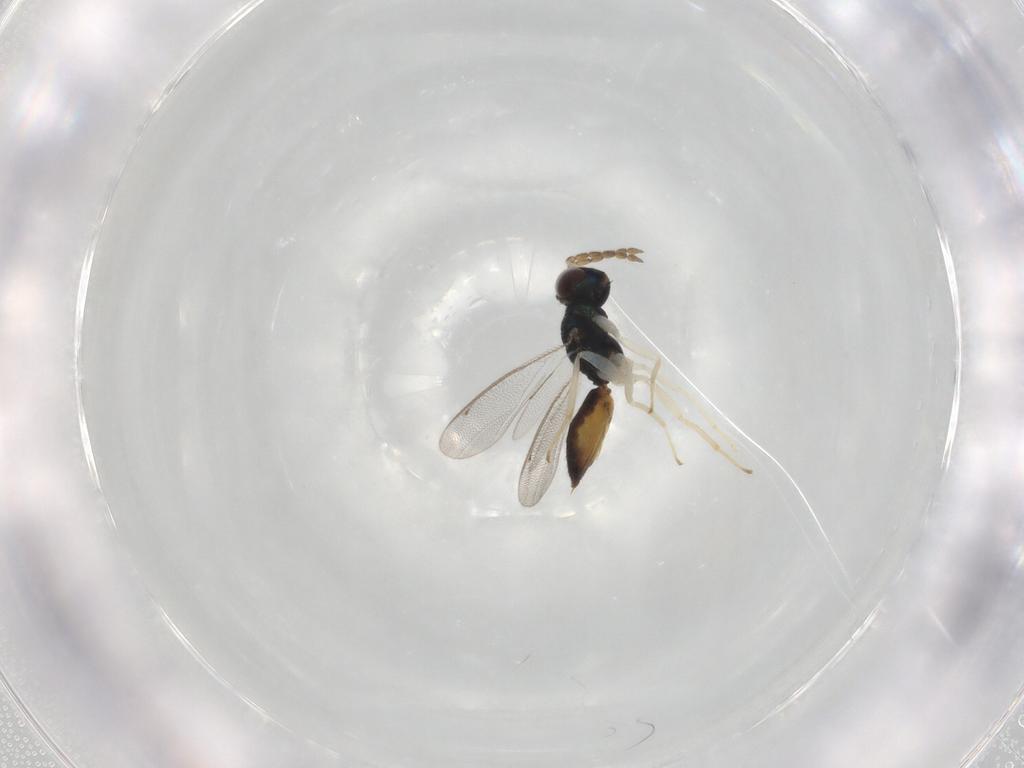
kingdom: Animalia
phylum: Arthropoda
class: Insecta
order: Hymenoptera
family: Eulophidae
